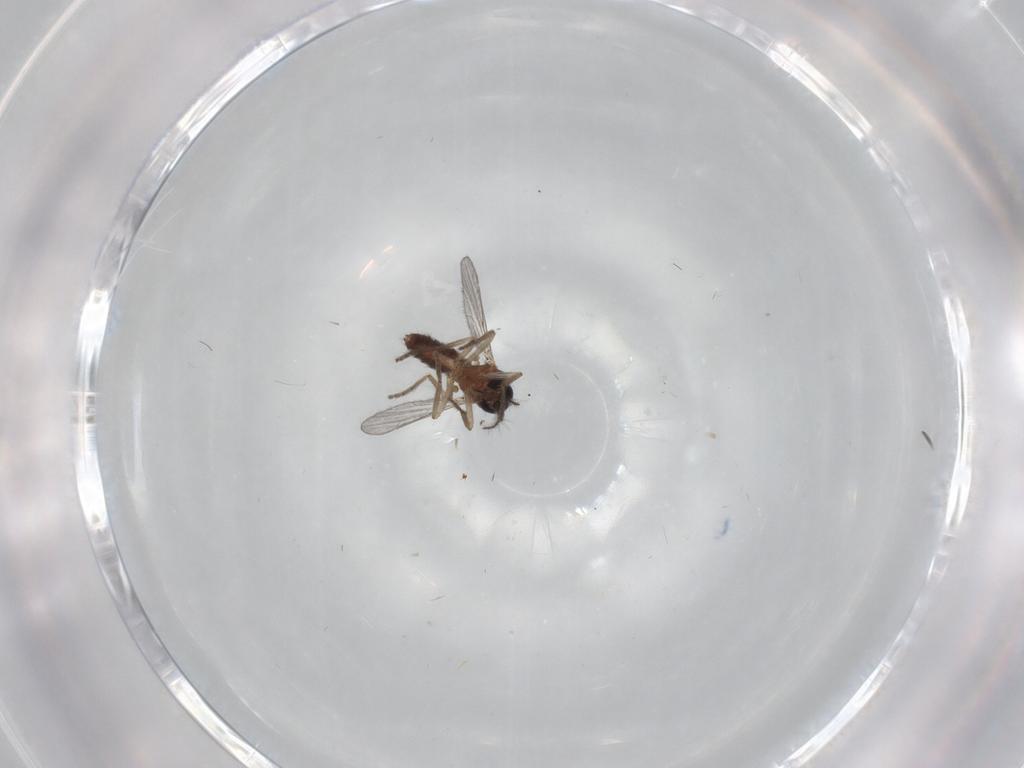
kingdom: Animalia
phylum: Arthropoda
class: Insecta
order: Diptera
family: Ceratopogonidae
